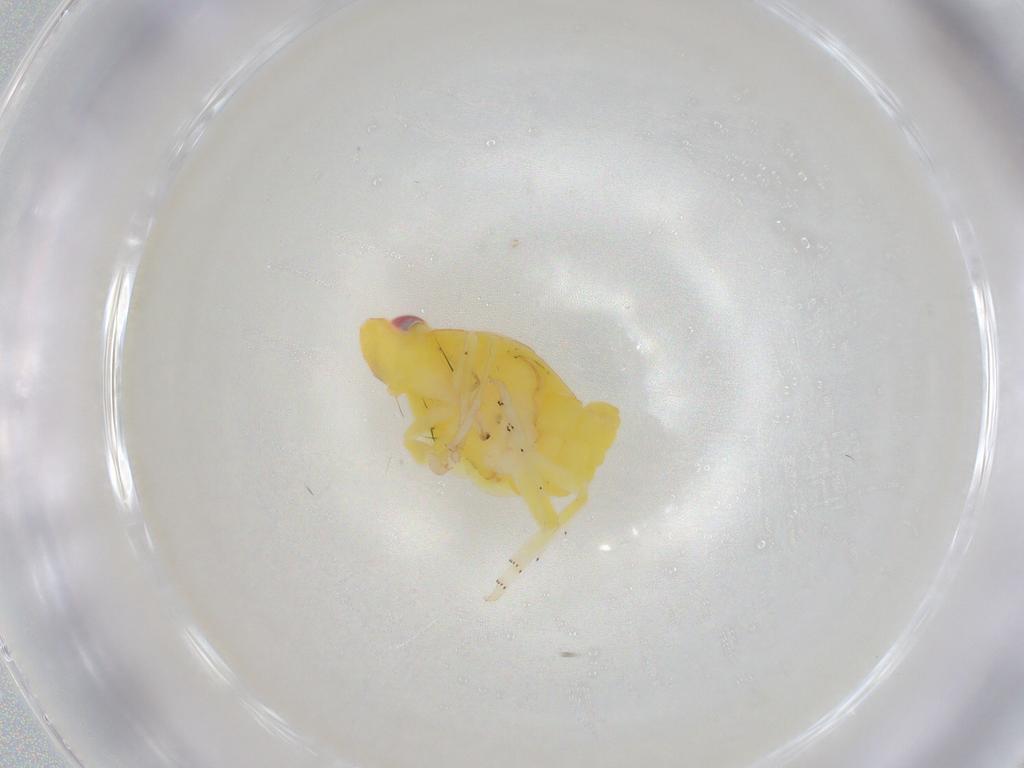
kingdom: Animalia
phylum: Arthropoda
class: Insecta
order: Hemiptera
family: Tropiduchidae
